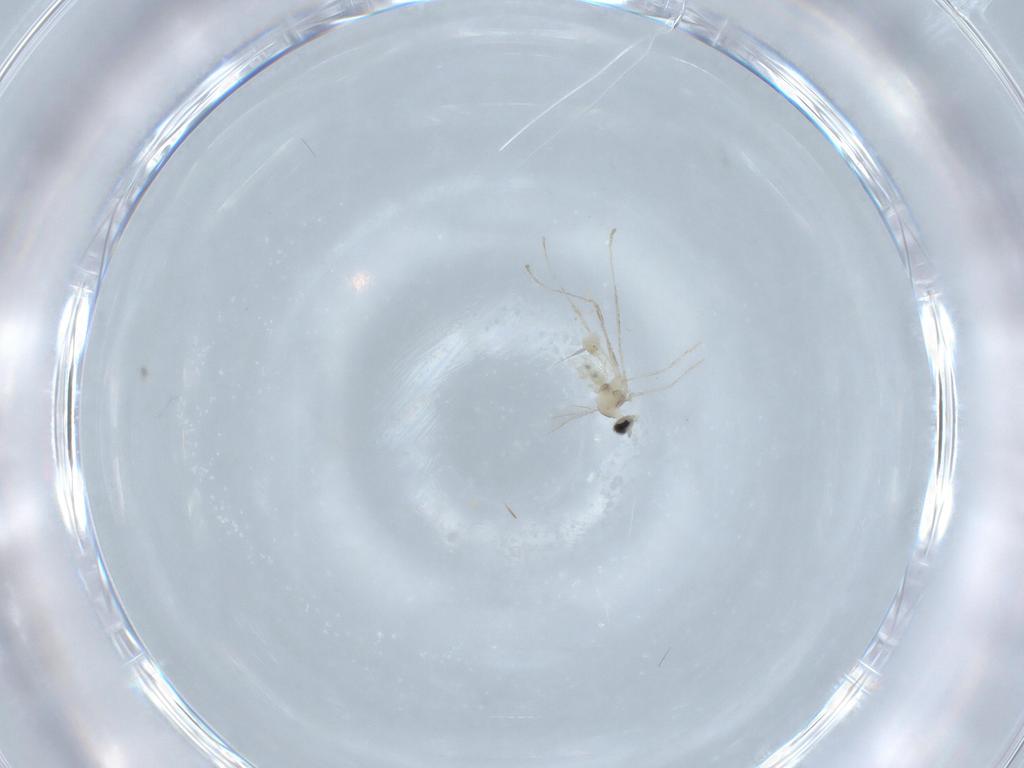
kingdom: Animalia
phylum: Arthropoda
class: Insecta
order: Diptera
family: Cecidomyiidae
